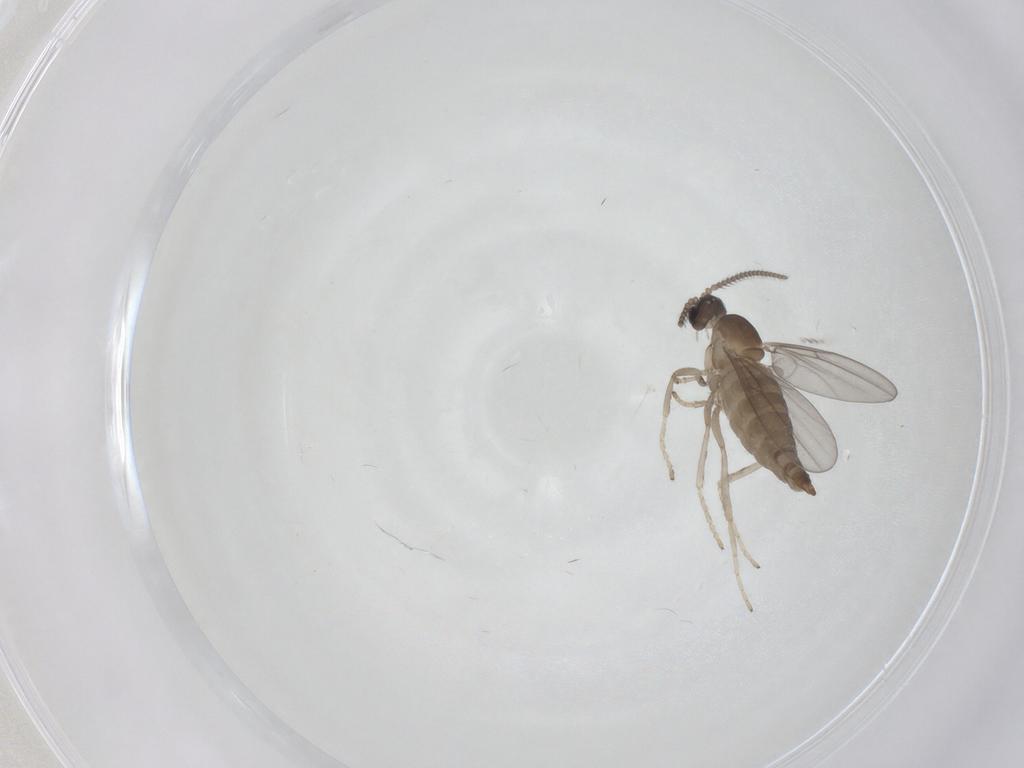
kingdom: Animalia
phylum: Arthropoda
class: Insecta
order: Diptera
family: Cecidomyiidae
